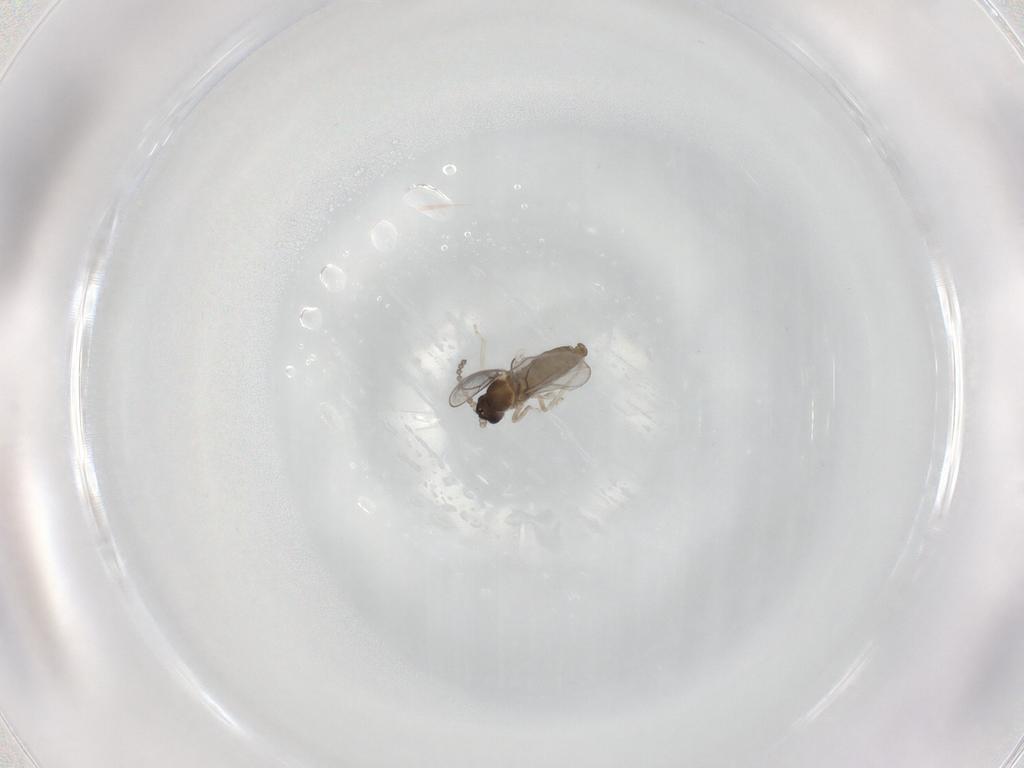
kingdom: Animalia
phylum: Arthropoda
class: Insecta
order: Diptera
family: Cecidomyiidae
